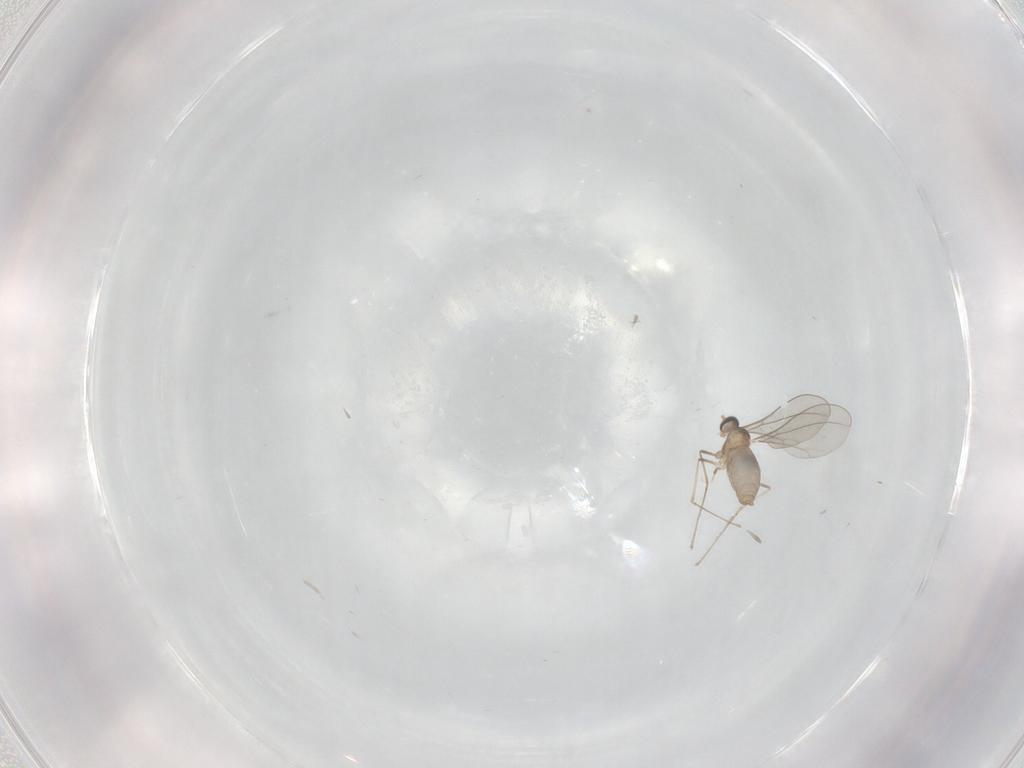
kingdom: Animalia
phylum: Arthropoda
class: Insecta
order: Diptera
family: Cecidomyiidae
